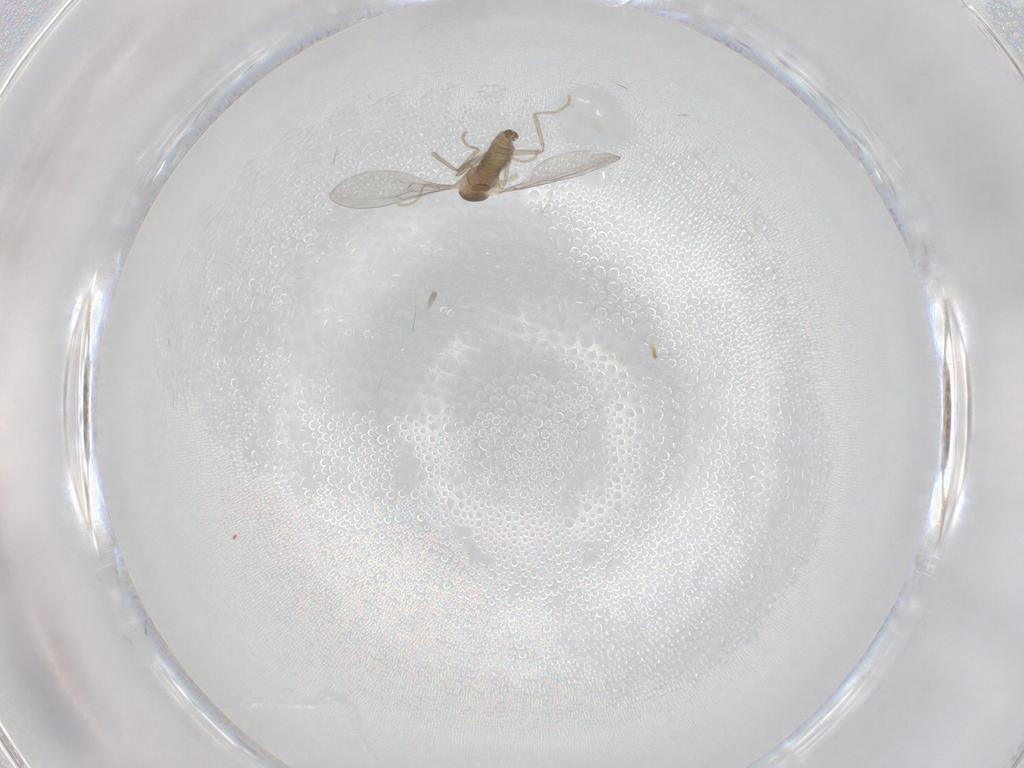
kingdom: Animalia
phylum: Arthropoda
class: Insecta
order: Diptera
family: Cecidomyiidae
